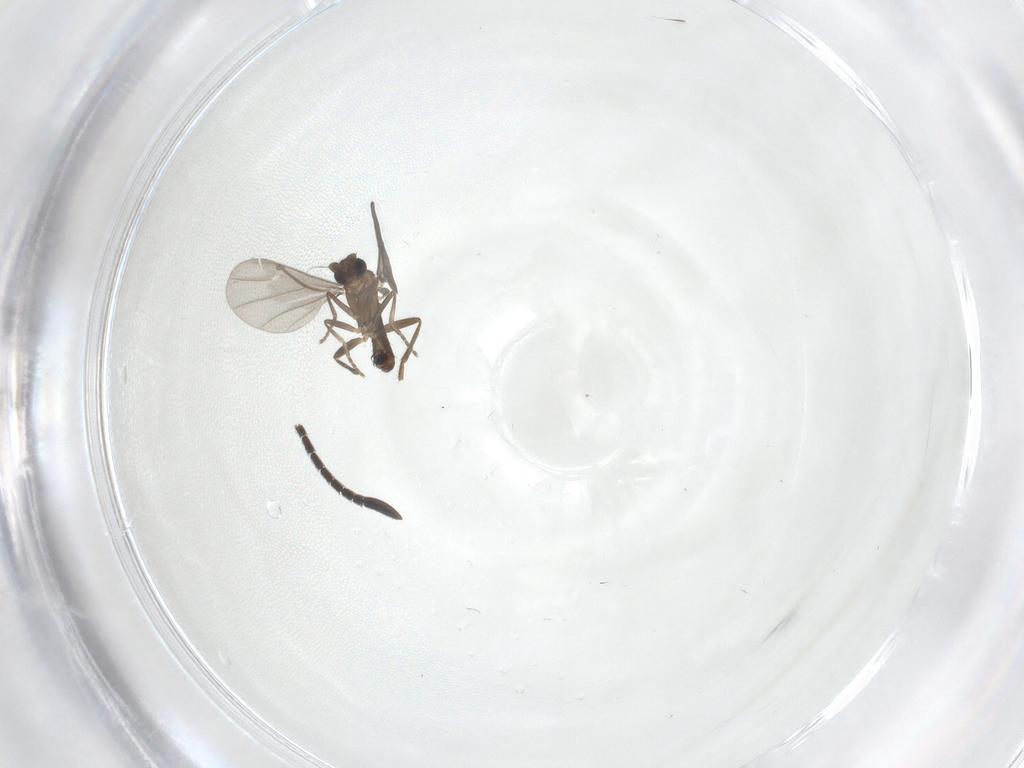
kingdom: Animalia
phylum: Arthropoda
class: Insecta
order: Diptera
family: Phoridae
